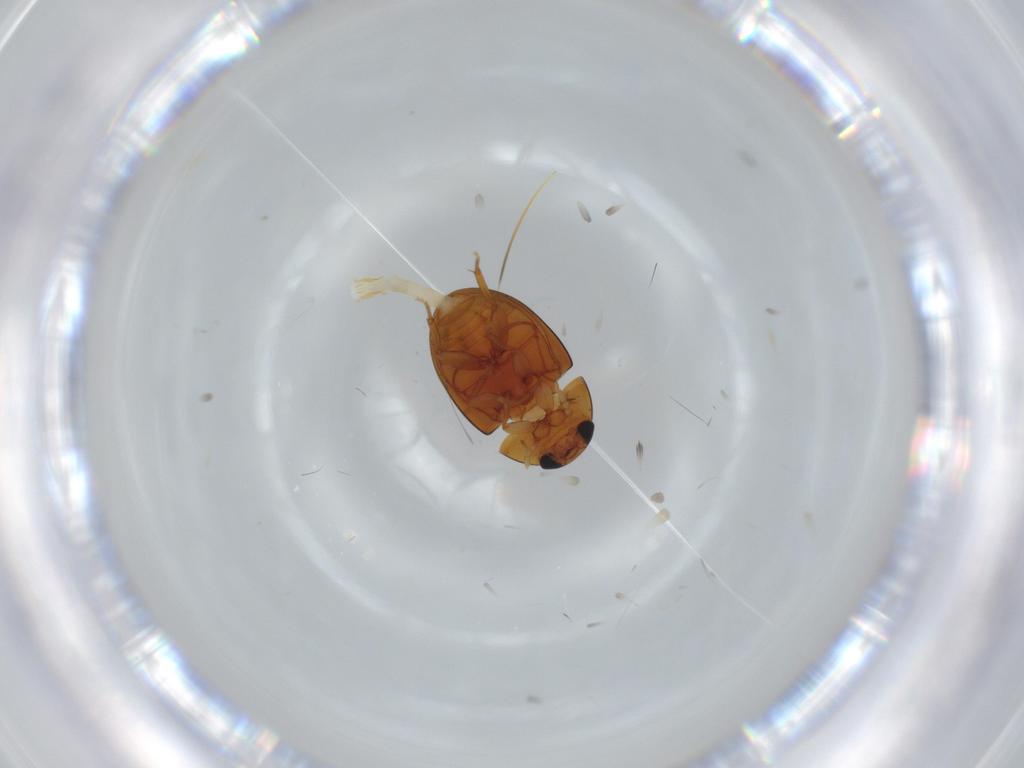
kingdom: Animalia
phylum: Arthropoda
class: Insecta
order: Coleoptera
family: Phalacridae
